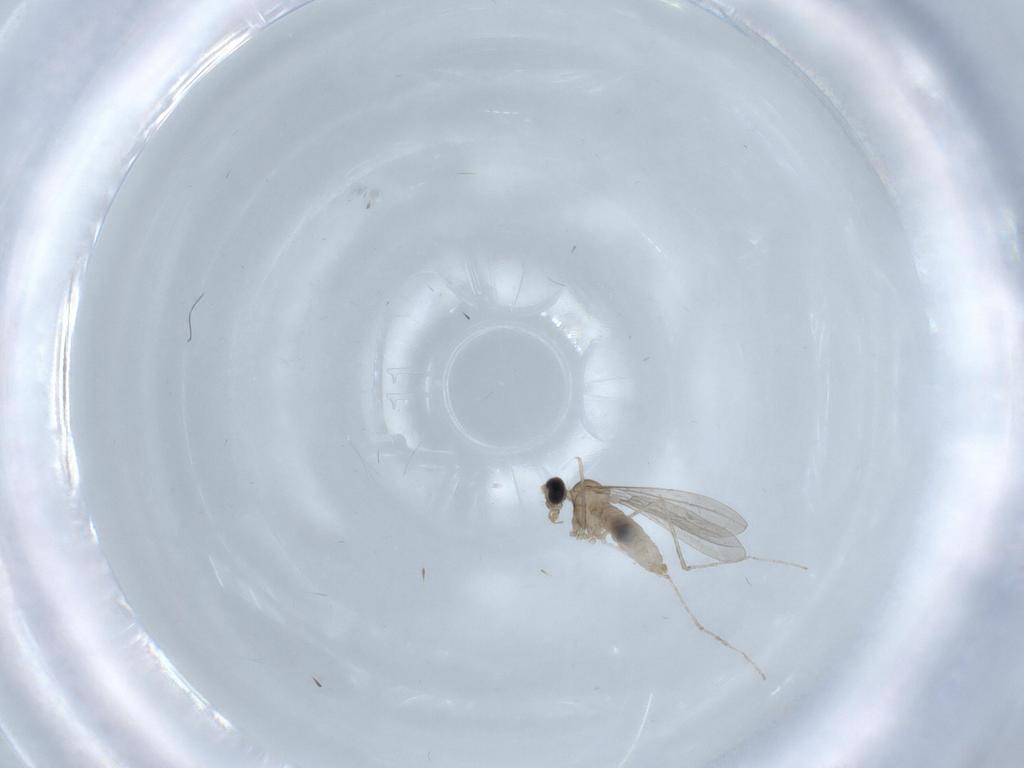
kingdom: Animalia
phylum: Arthropoda
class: Insecta
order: Diptera
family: Cecidomyiidae
